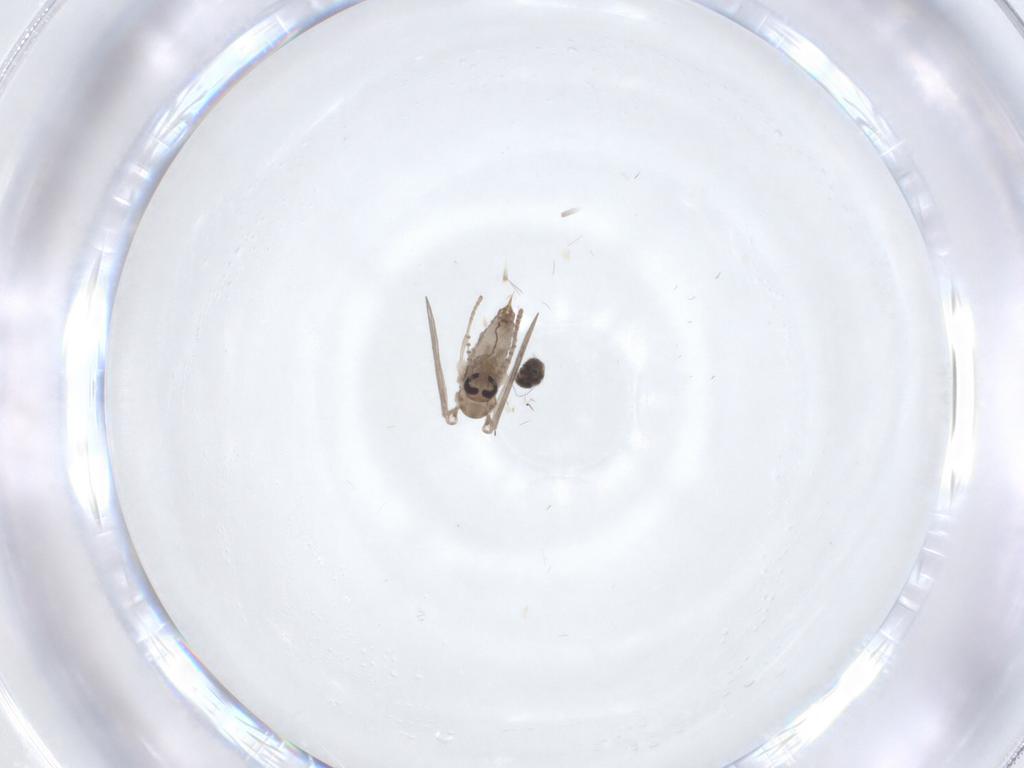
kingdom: Animalia
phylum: Arthropoda
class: Insecta
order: Diptera
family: Psychodidae
